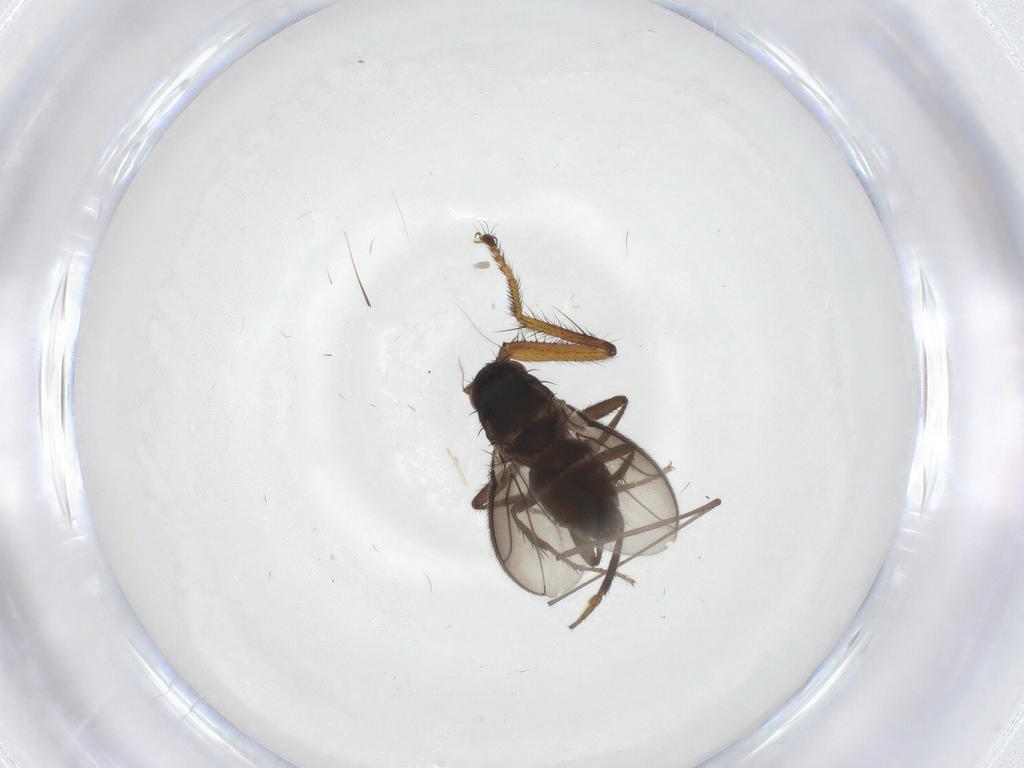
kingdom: Animalia
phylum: Arthropoda
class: Insecta
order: Diptera
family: Sphaeroceridae
